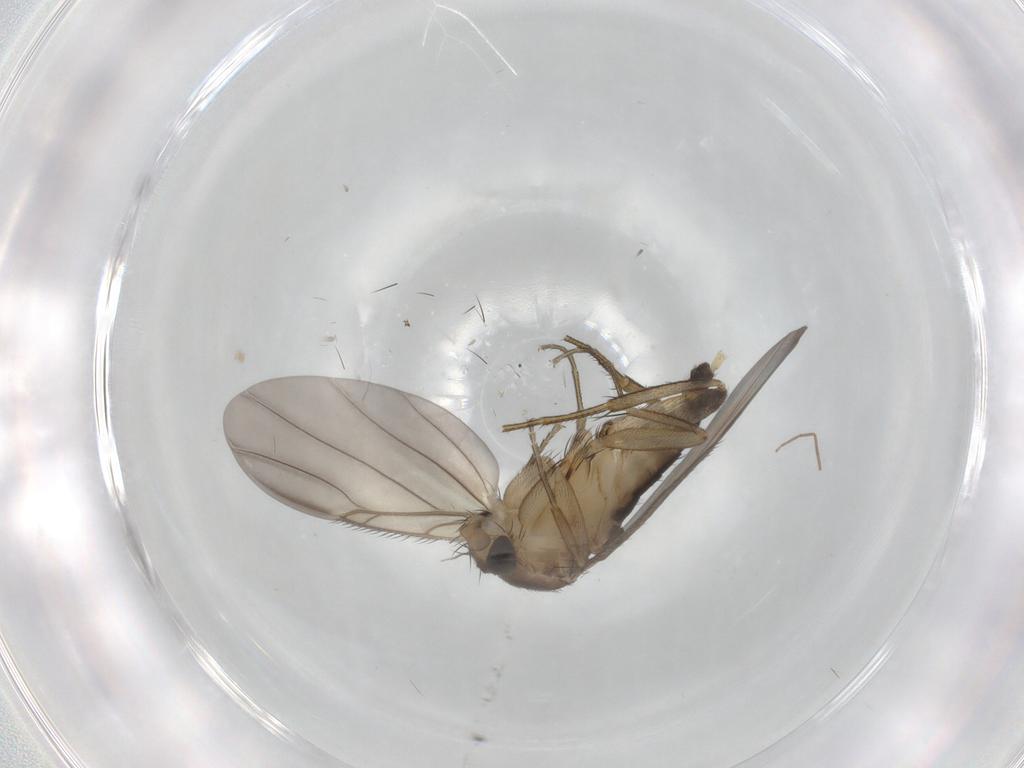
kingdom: Animalia
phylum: Arthropoda
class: Insecta
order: Diptera
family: Phoridae
